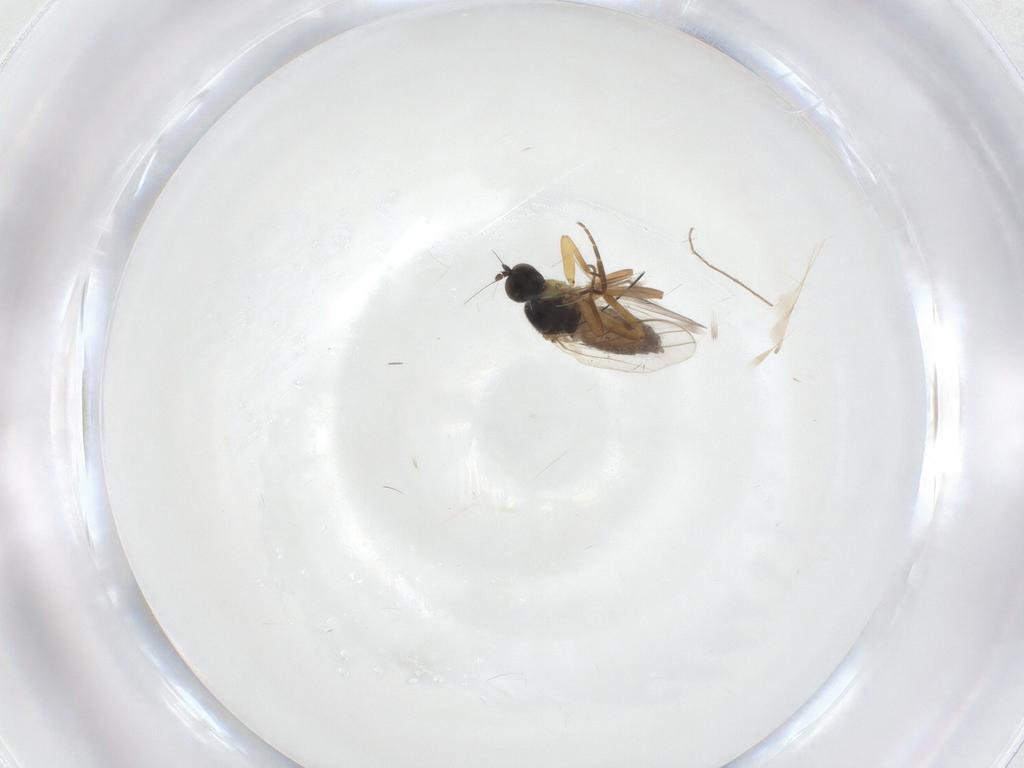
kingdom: Animalia
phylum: Arthropoda
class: Insecta
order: Diptera
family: Hybotidae
